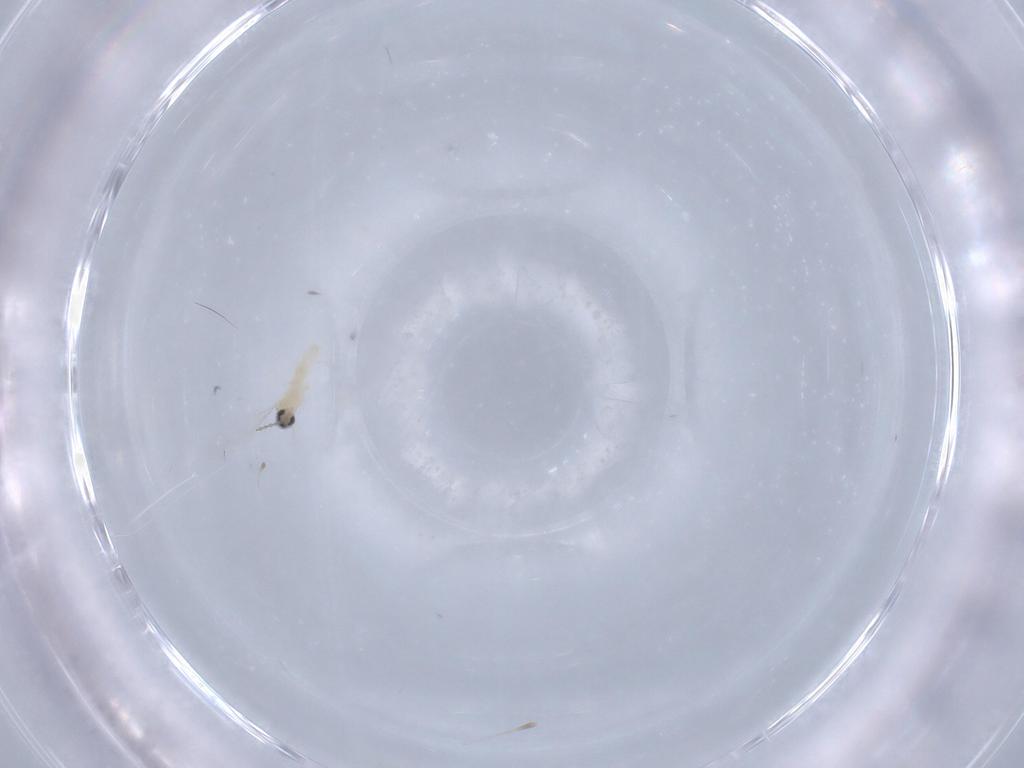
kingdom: Animalia
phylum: Arthropoda
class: Insecta
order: Diptera
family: Cecidomyiidae
